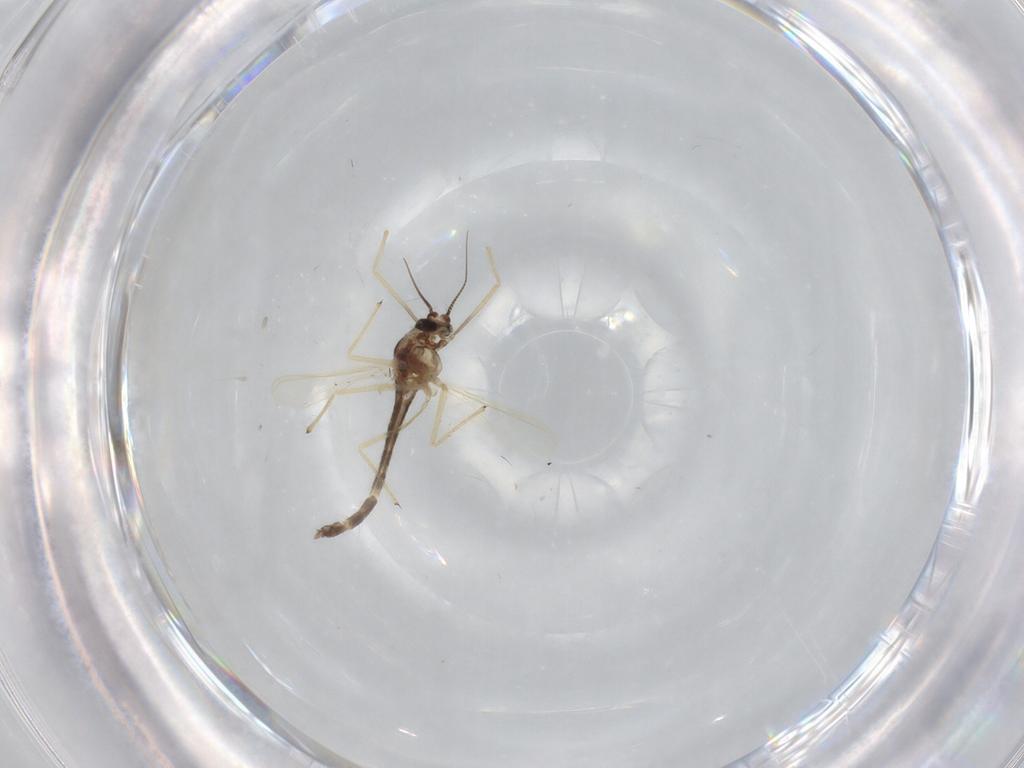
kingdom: Animalia
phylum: Arthropoda
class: Insecta
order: Diptera
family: Chironomidae
